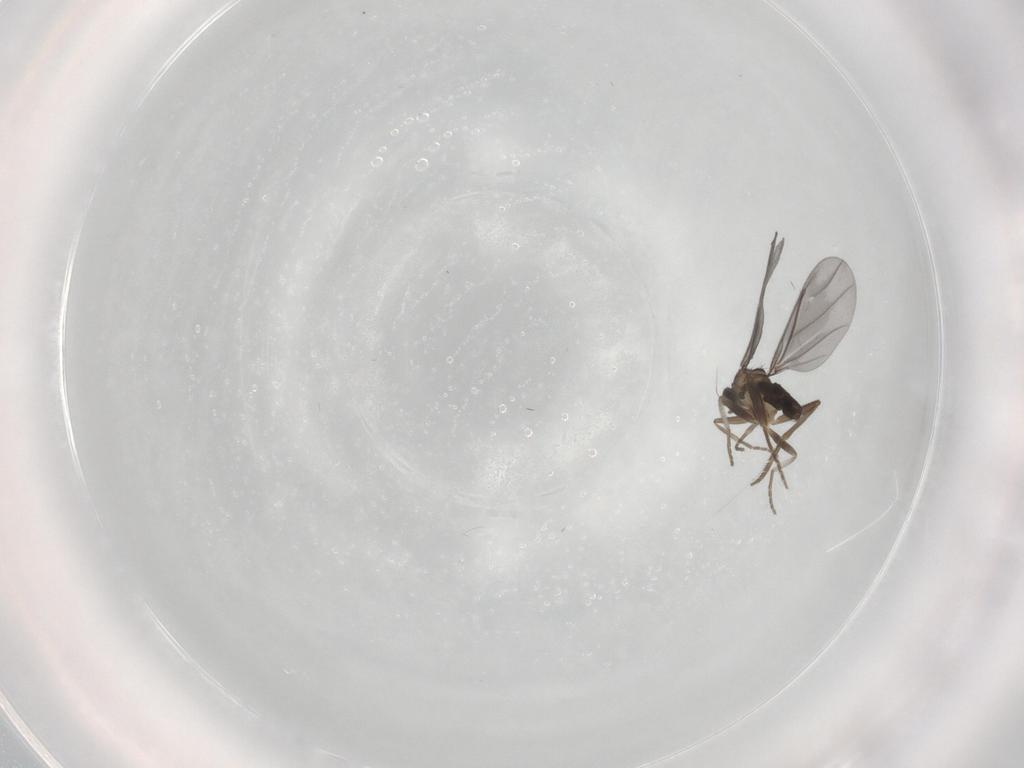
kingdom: Animalia
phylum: Arthropoda
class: Insecta
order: Diptera
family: Phoridae
